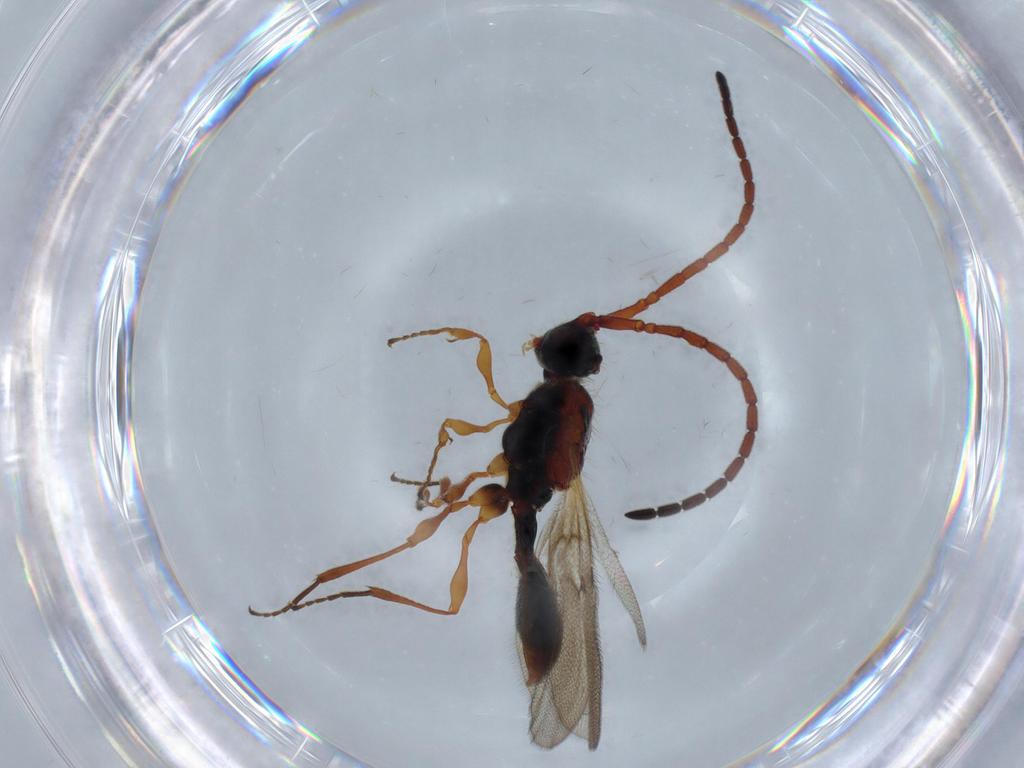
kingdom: Animalia
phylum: Arthropoda
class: Insecta
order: Hymenoptera
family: Diapriidae
